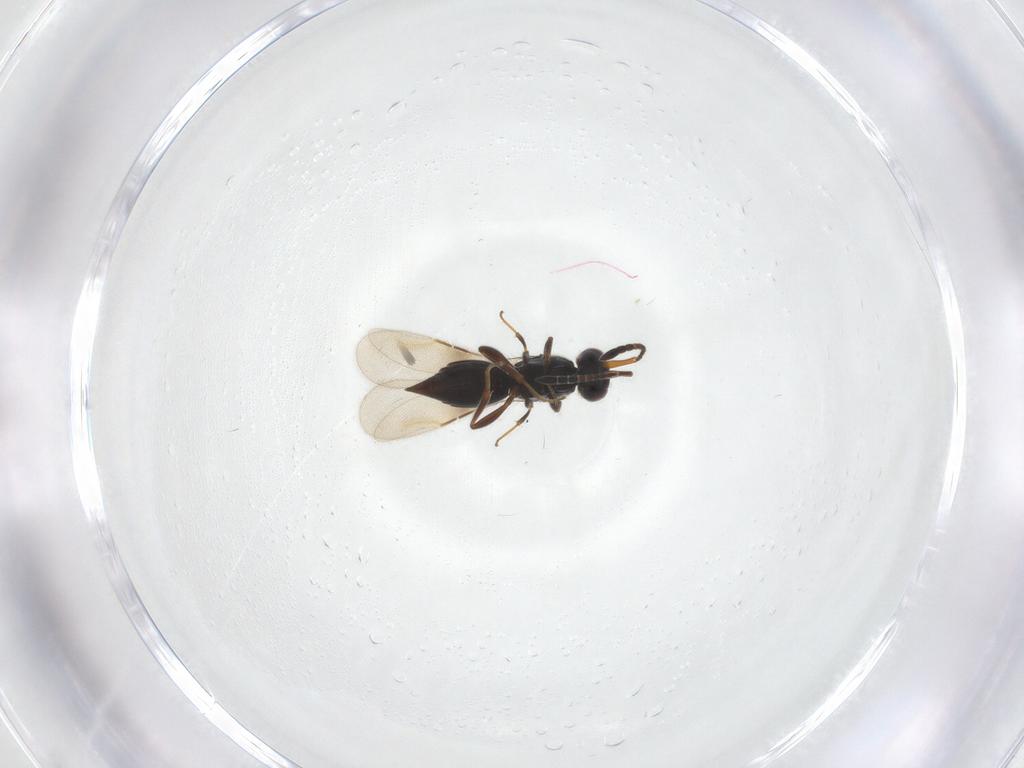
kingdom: Animalia
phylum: Arthropoda
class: Insecta
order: Hymenoptera
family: Ceraphronidae
